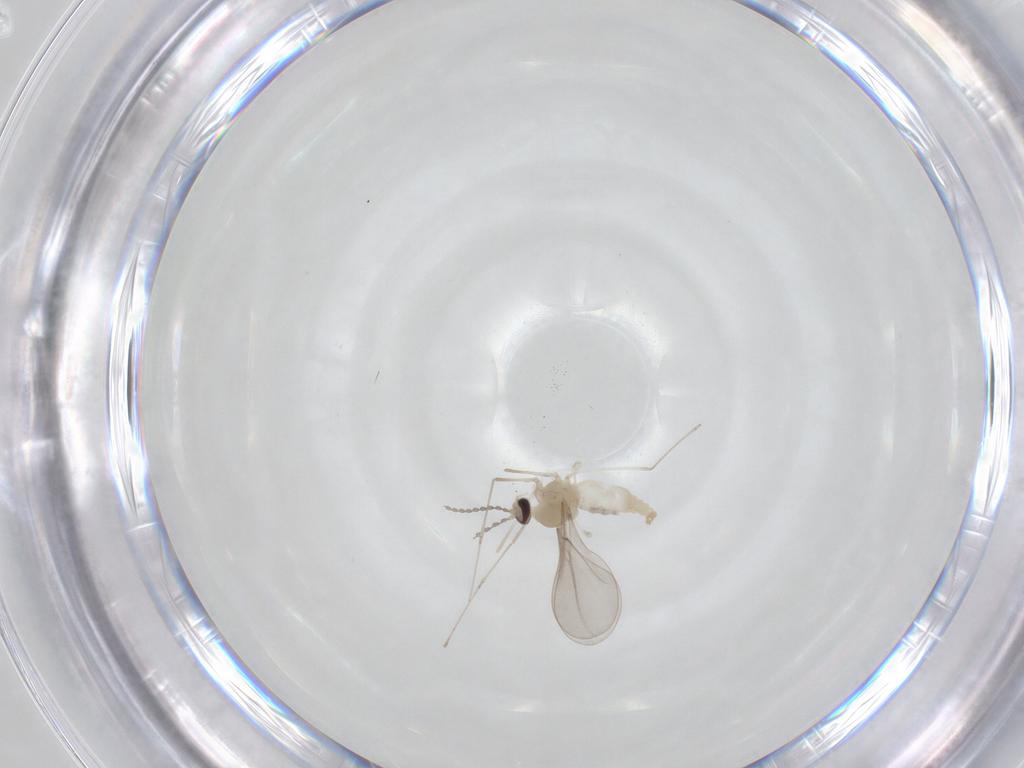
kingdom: Animalia
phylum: Arthropoda
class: Insecta
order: Diptera
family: Cecidomyiidae
